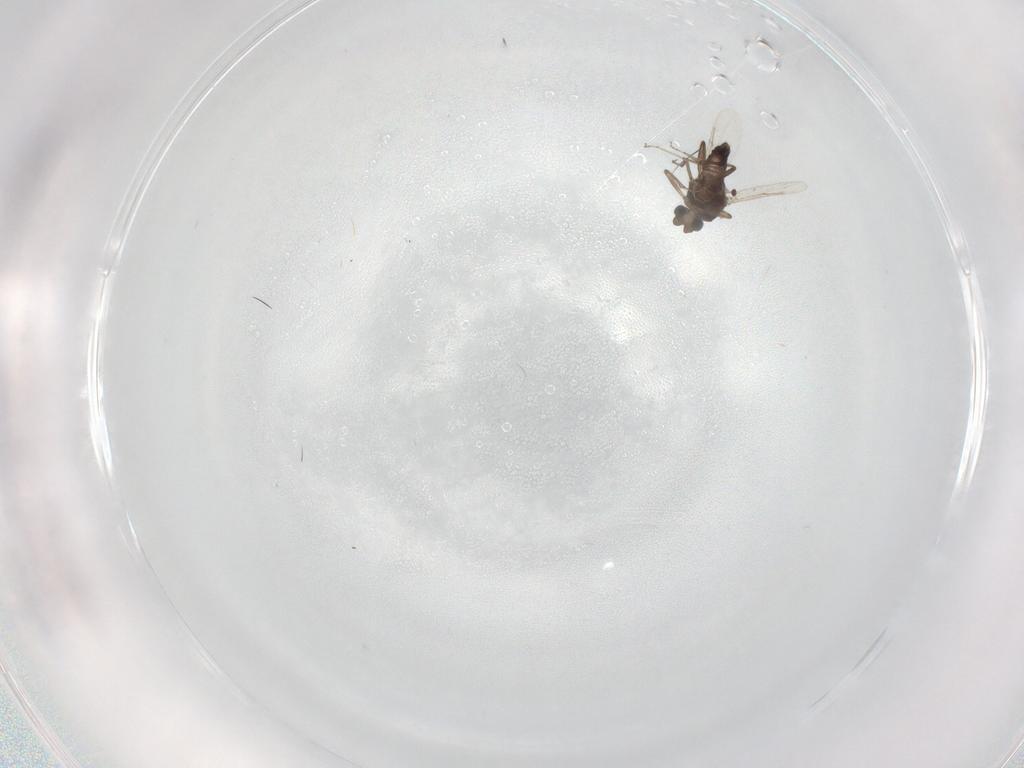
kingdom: Animalia
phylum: Arthropoda
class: Insecta
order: Diptera
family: Ceratopogonidae
